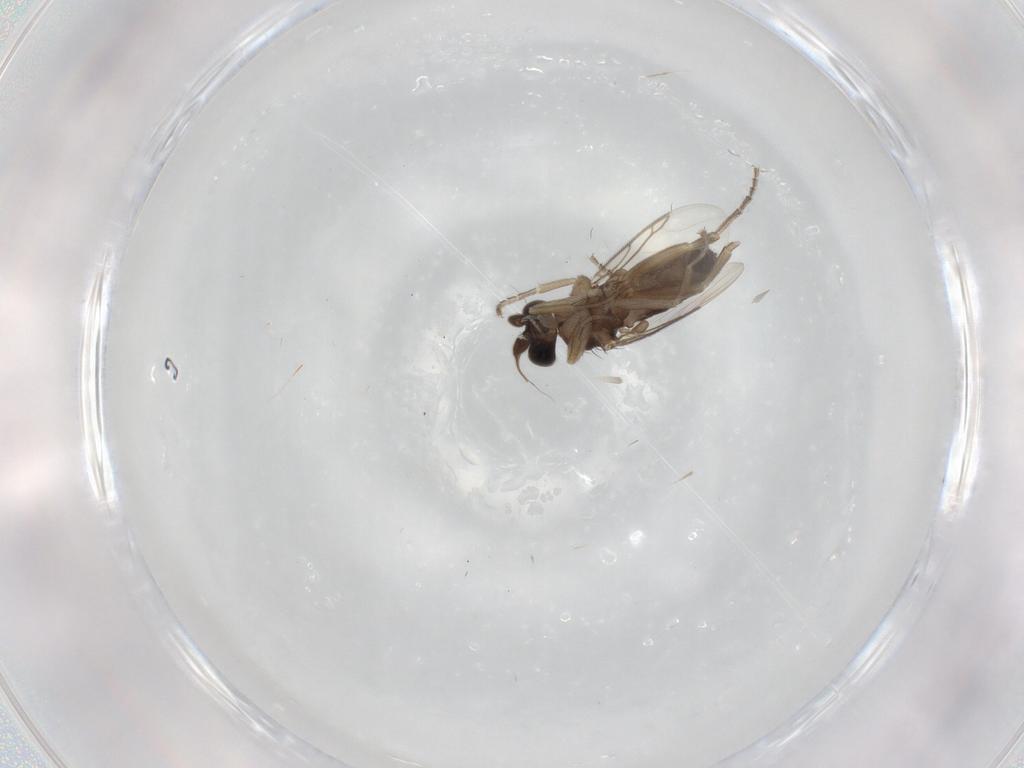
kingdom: Animalia
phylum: Arthropoda
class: Insecta
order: Diptera
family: Phoridae
